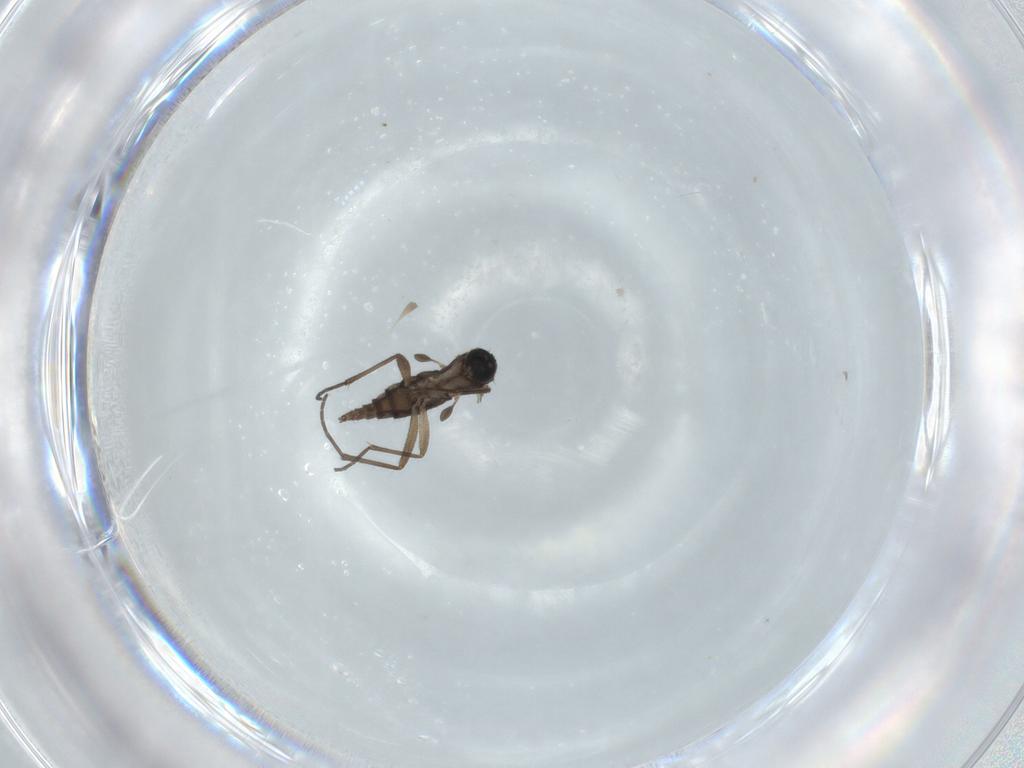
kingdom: Animalia
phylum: Arthropoda
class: Insecta
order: Diptera
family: Sciaridae
